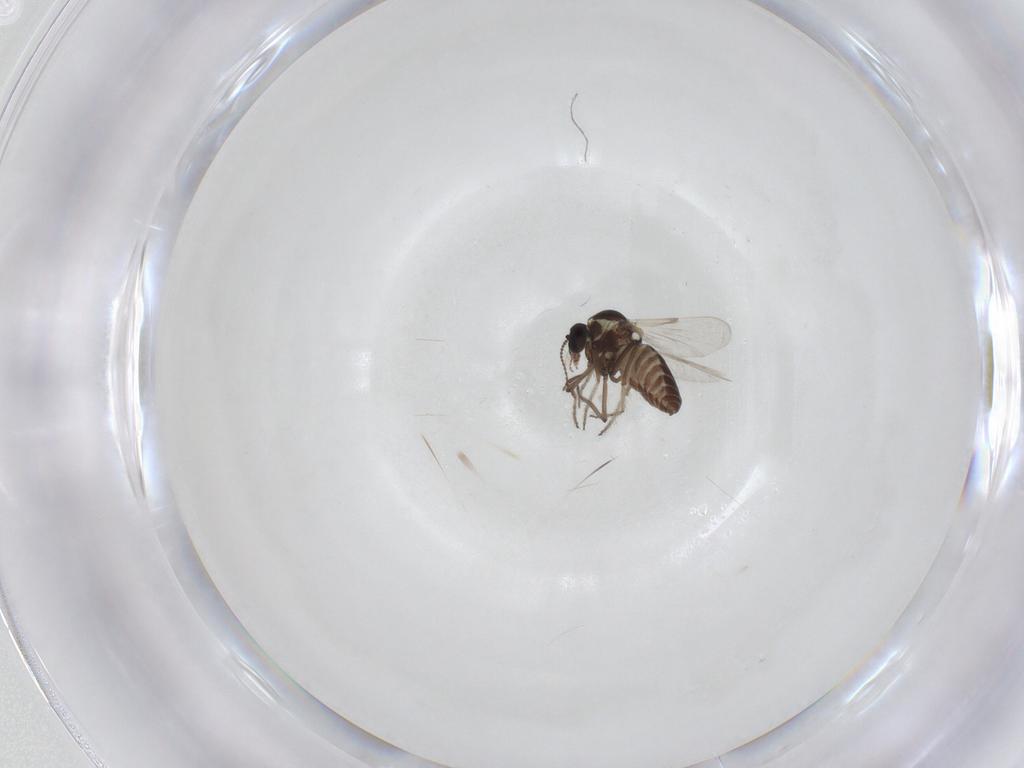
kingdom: Animalia
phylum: Arthropoda
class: Insecta
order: Diptera
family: Ceratopogonidae
